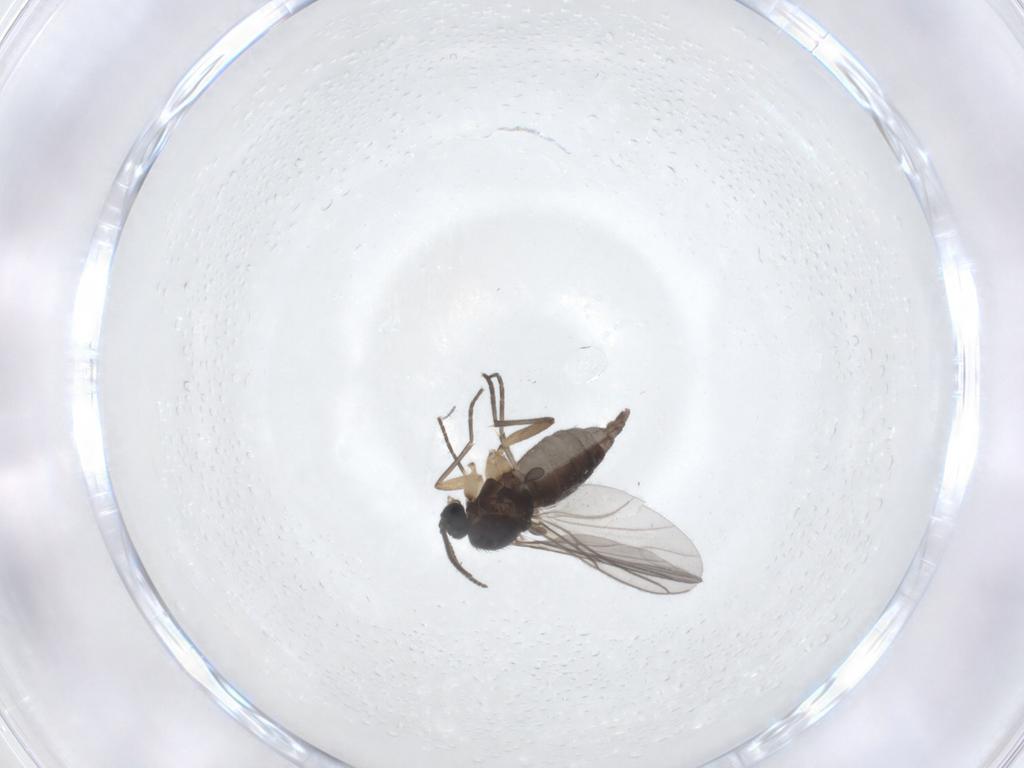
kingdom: Animalia
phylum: Arthropoda
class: Insecta
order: Diptera
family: Sciaridae
